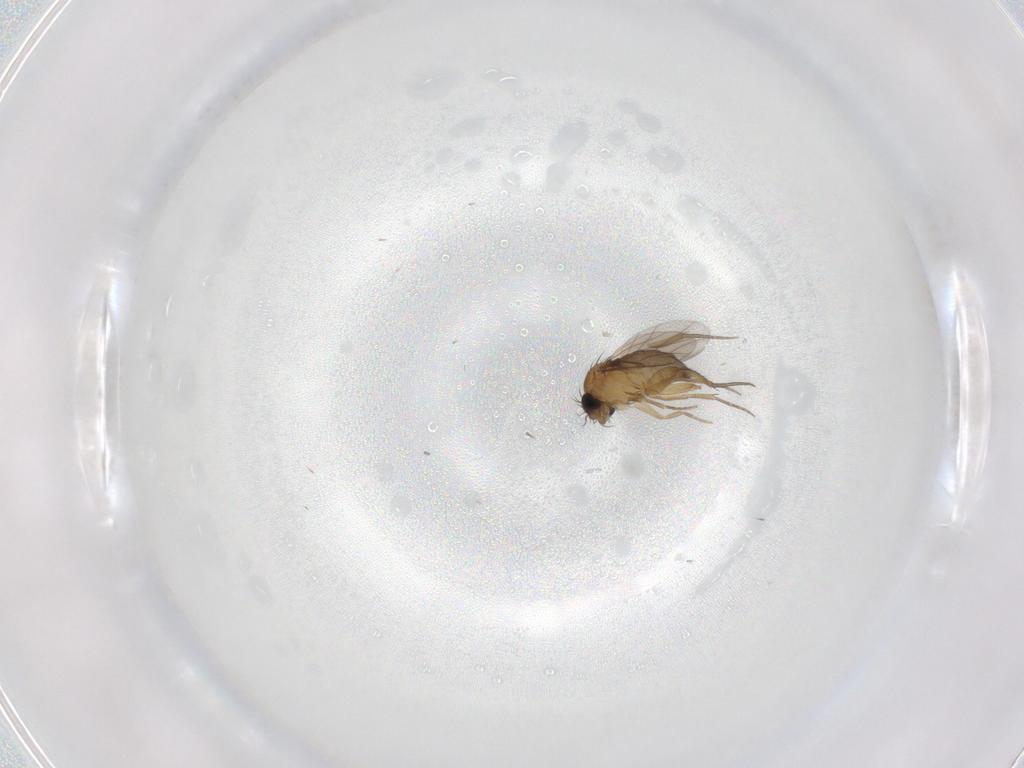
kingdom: Animalia
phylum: Arthropoda
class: Insecta
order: Diptera
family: Phoridae
